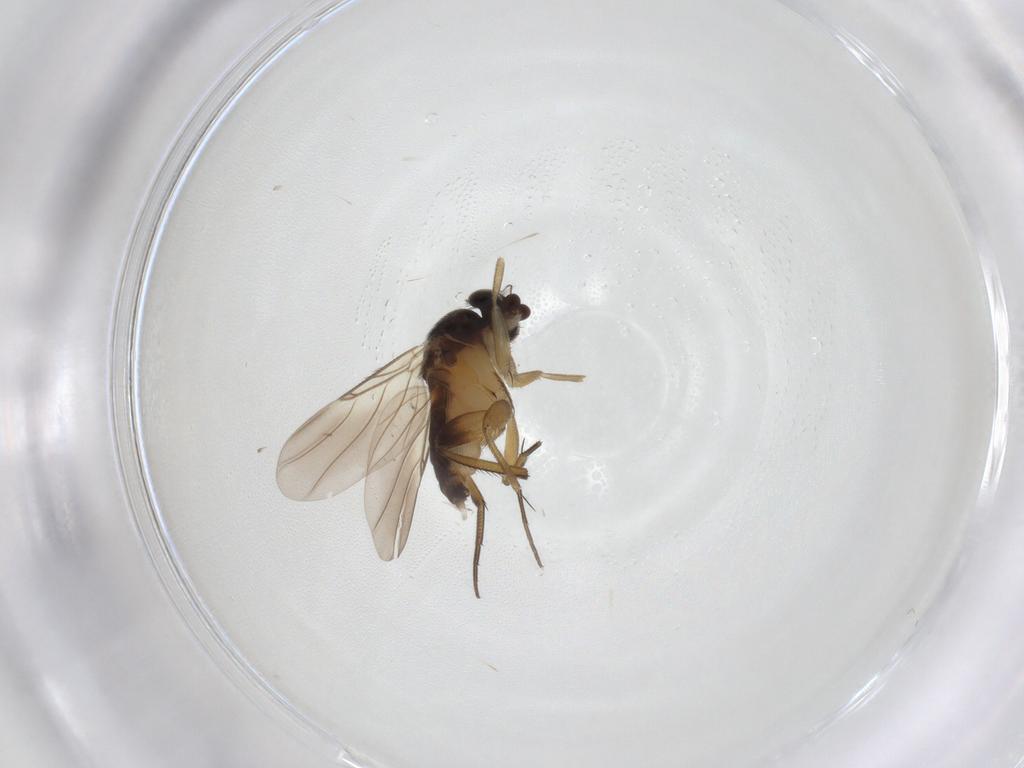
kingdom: Animalia
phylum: Arthropoda
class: Insecta
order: Diptera
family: Phoridae
